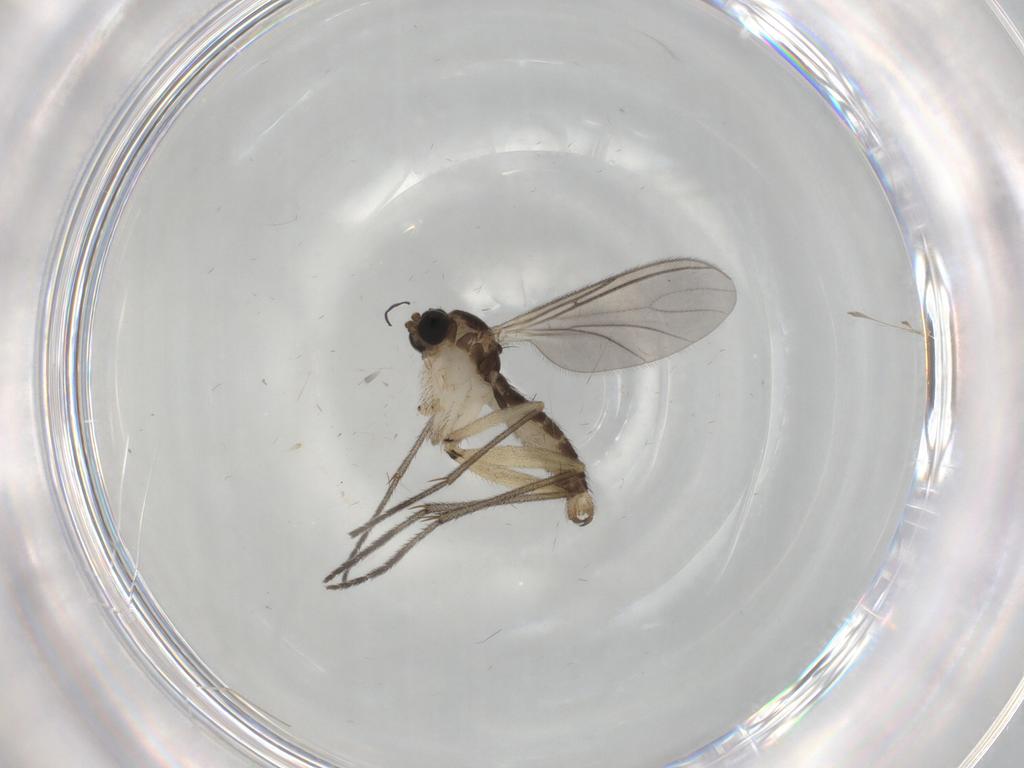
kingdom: Animalia
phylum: Arthropoda
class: Insecta
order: Diptera
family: Sciaridae
